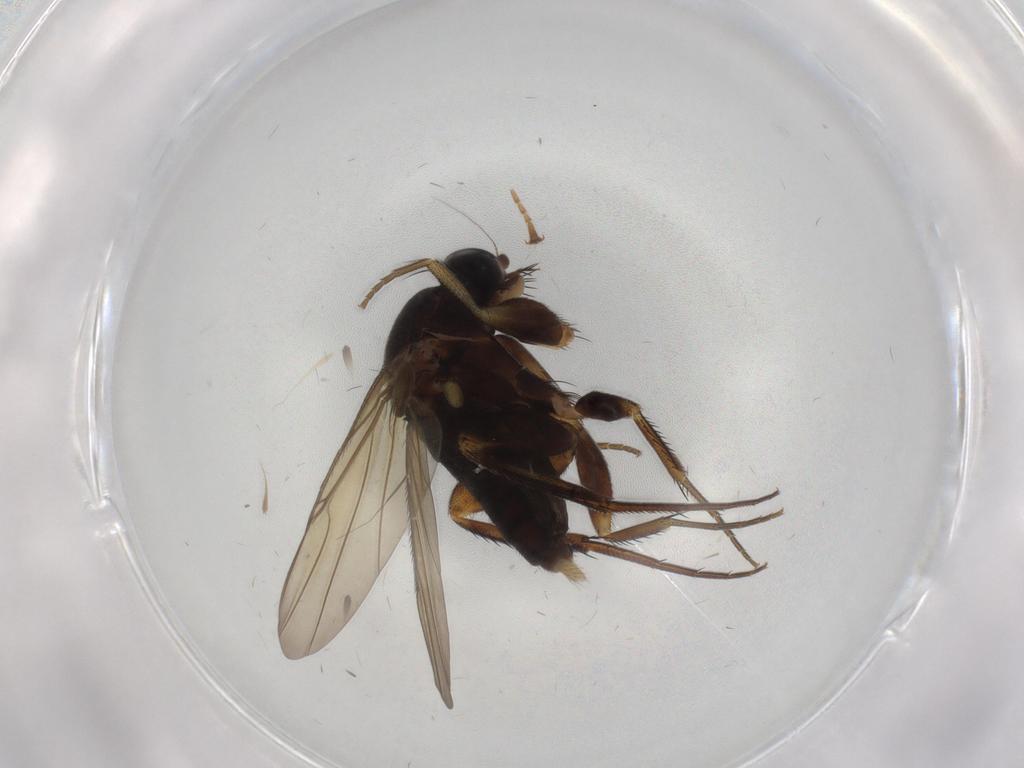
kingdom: Animalia
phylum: Arthropoda
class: Insecta
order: Diptera
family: Phoridae
